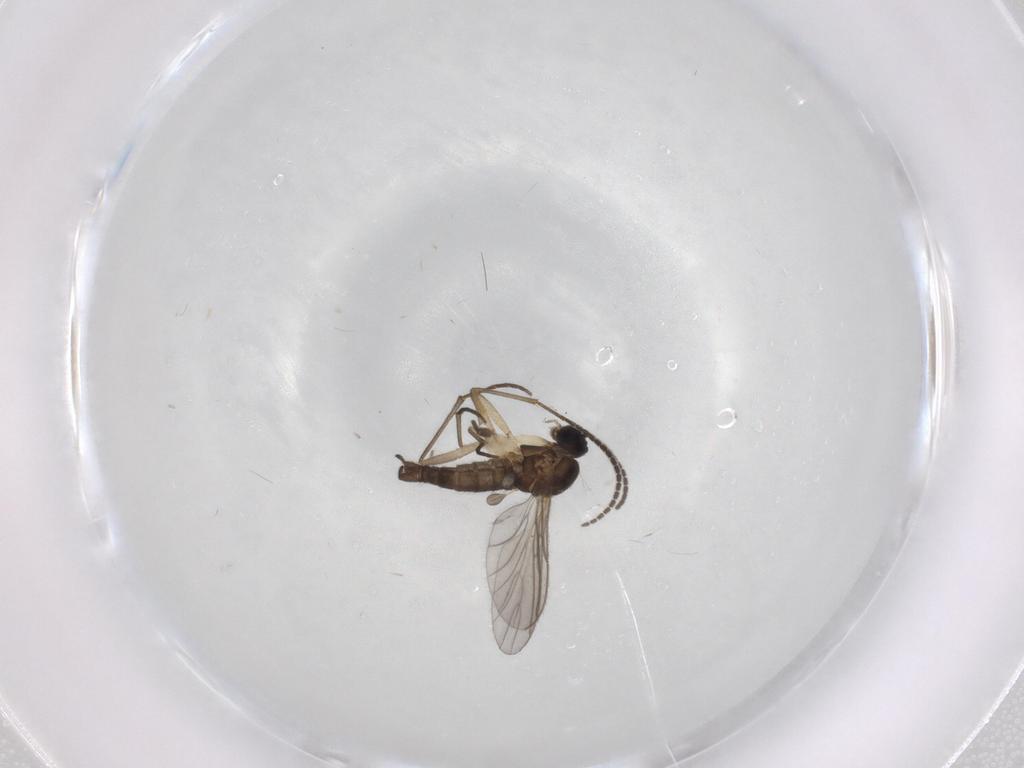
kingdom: Animalia
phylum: Arthropoda
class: Insecta
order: Diptera
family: Sciaridae
